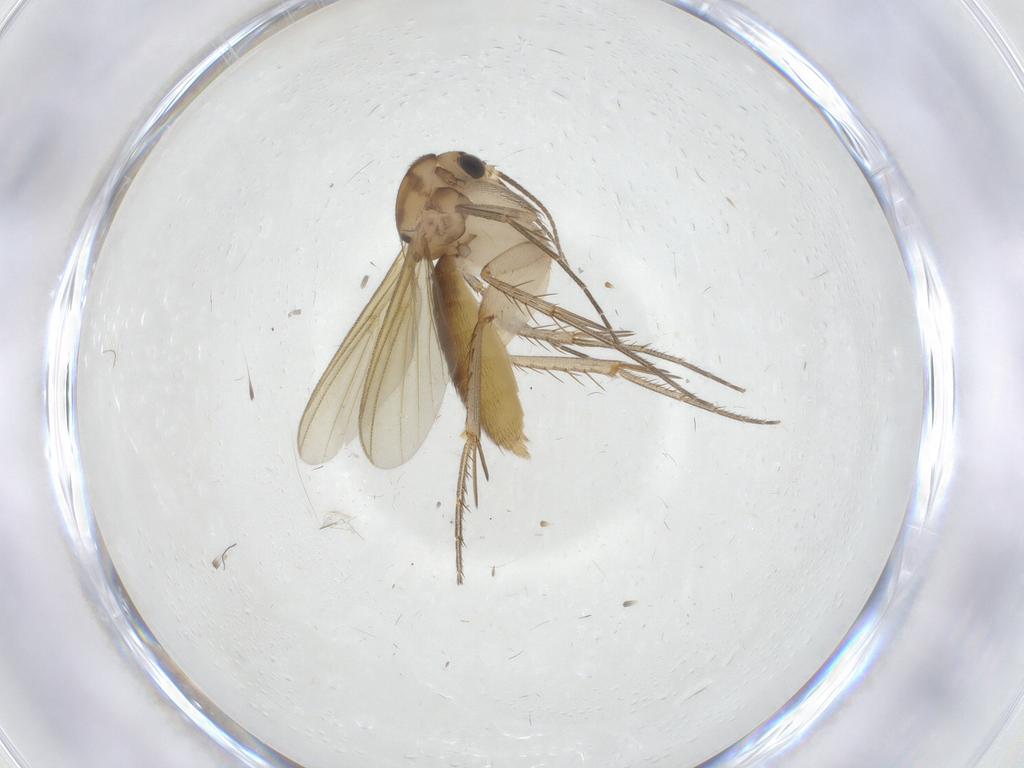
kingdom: Animalia
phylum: Arthropoda
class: Insecta
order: Diptera
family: Mycetophilidae
